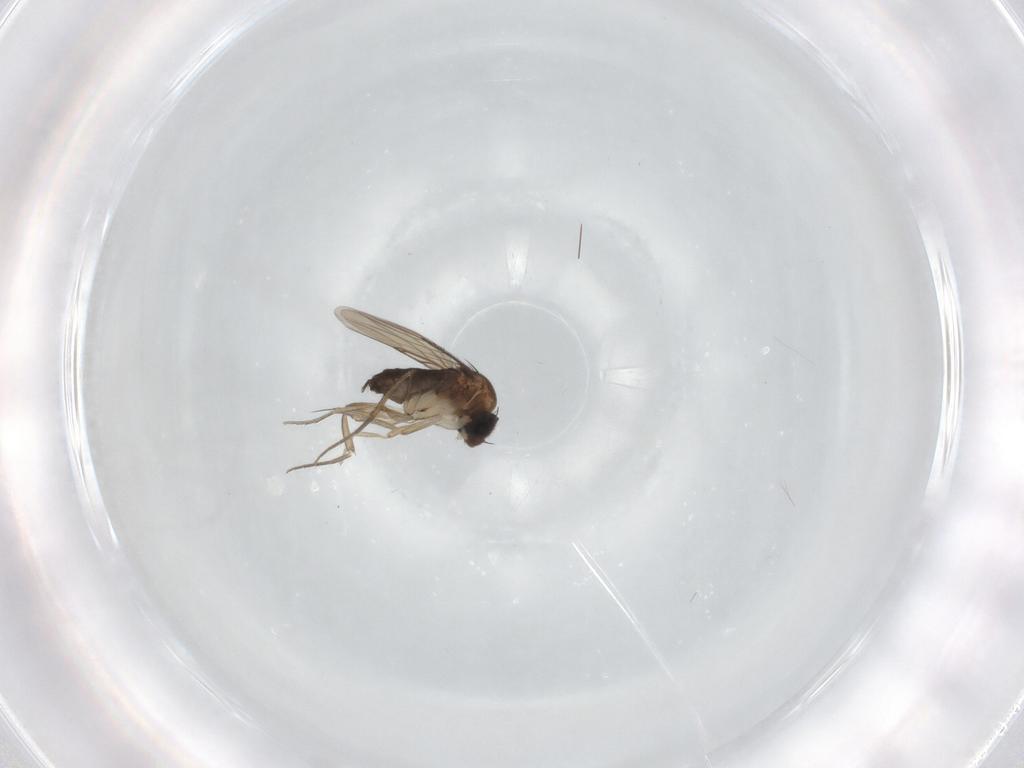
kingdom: Animalia
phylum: Arthropoda
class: Insecta
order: Diptera
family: Phoridae
